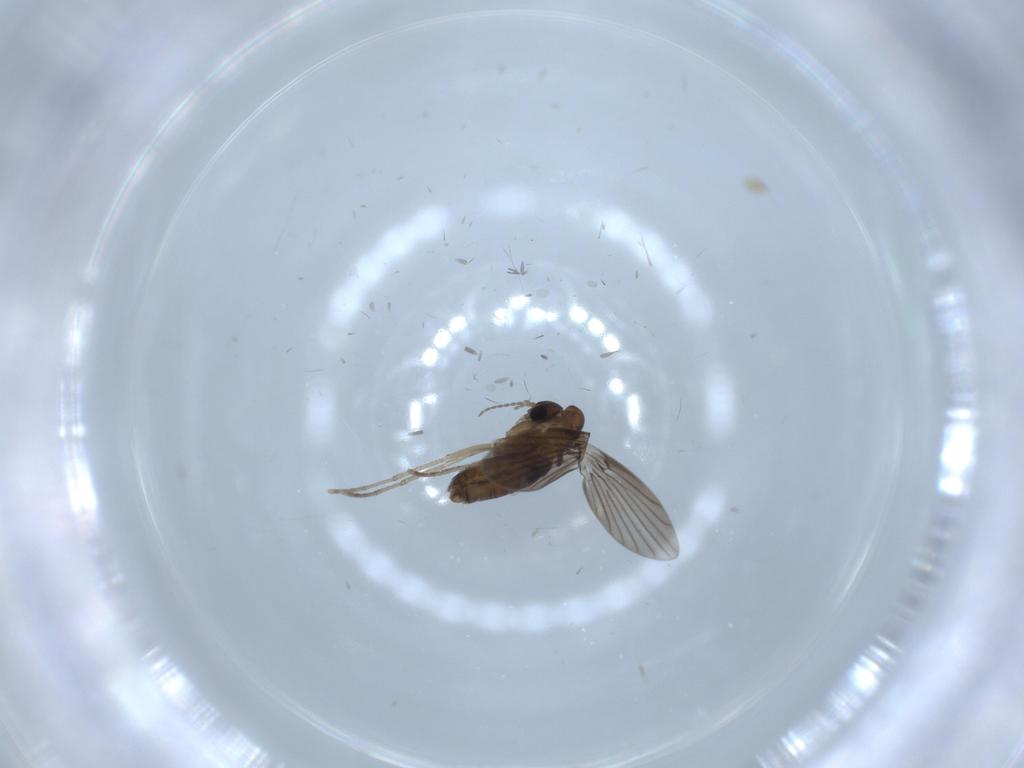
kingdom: Animalia
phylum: Arthropoda
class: Insecta
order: Diptera
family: Psychodidae
